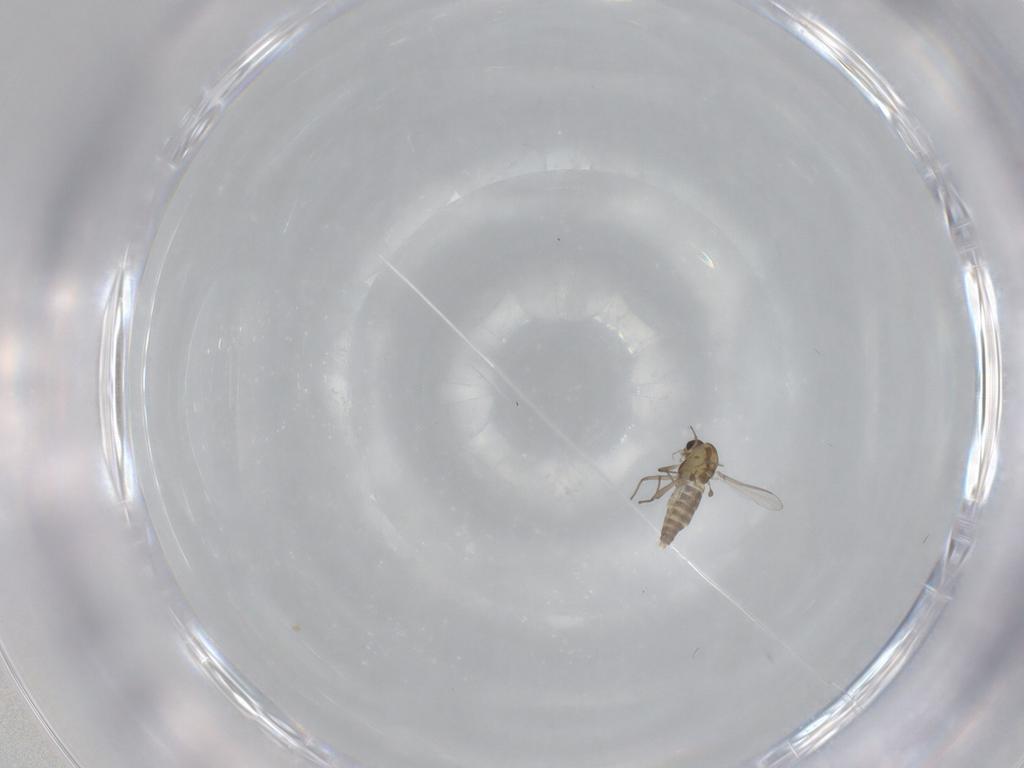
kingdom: Animalia
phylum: Arthropoda
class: Insecta
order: Diptera
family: Chironomidae
